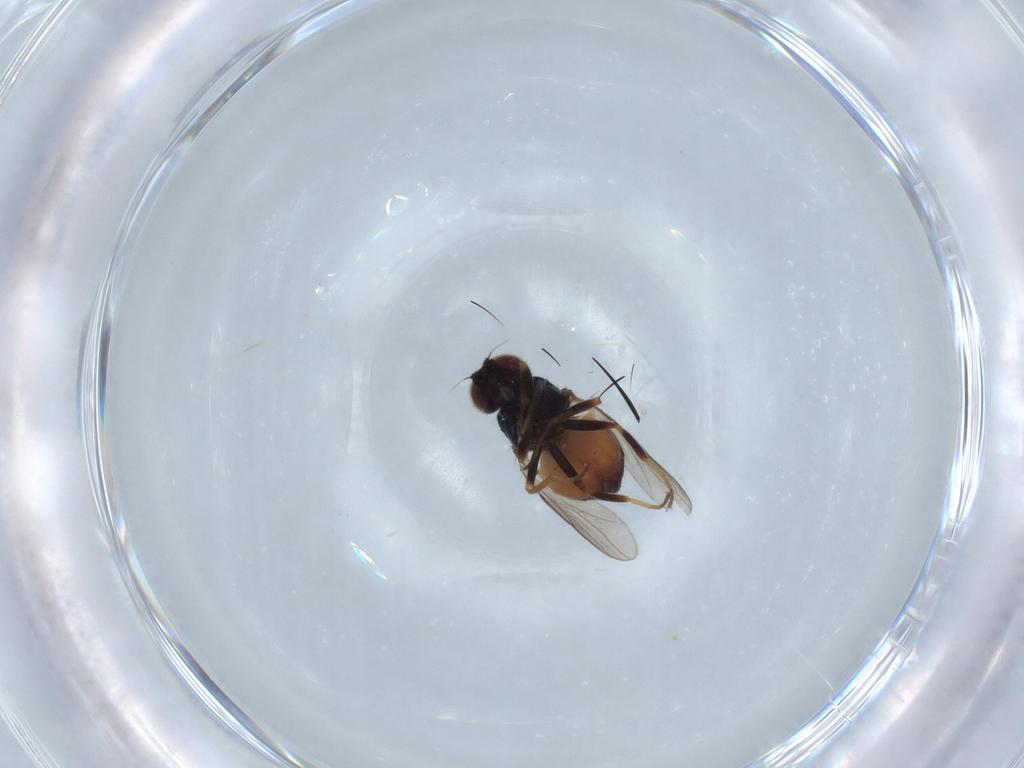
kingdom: Animalia
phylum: Arthropoda
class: Insecta
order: Diptera
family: Chloropidae
